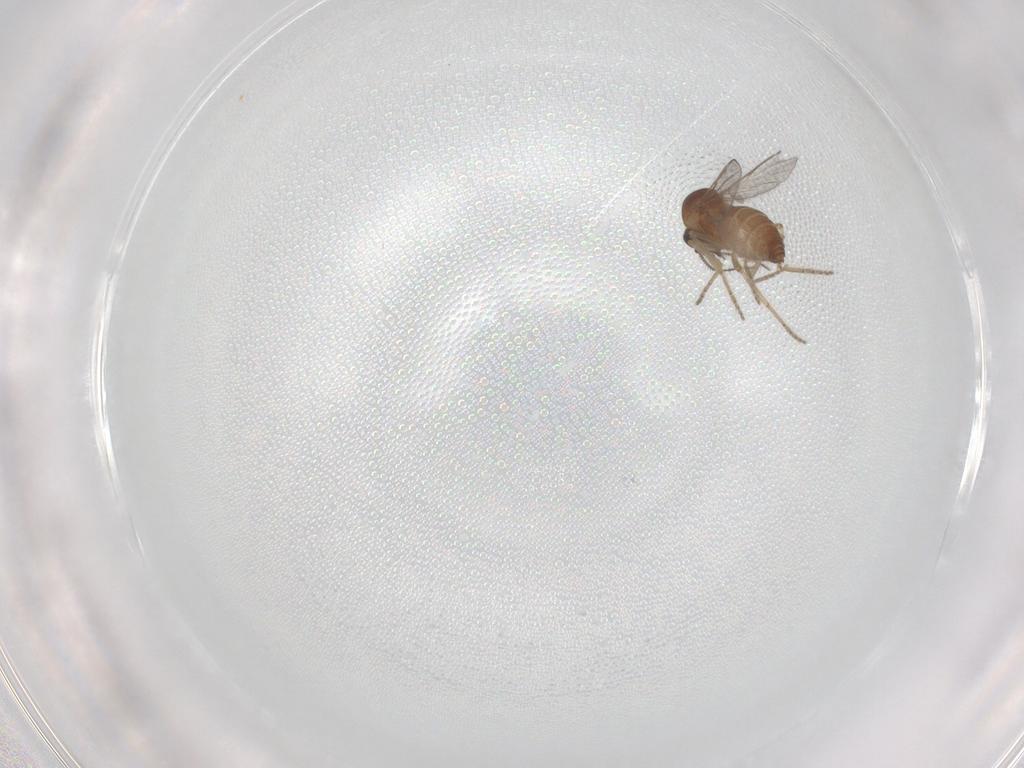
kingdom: Animalia
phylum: Arthropoda
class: Insecta
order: Diptera
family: Ceratopogonidae
